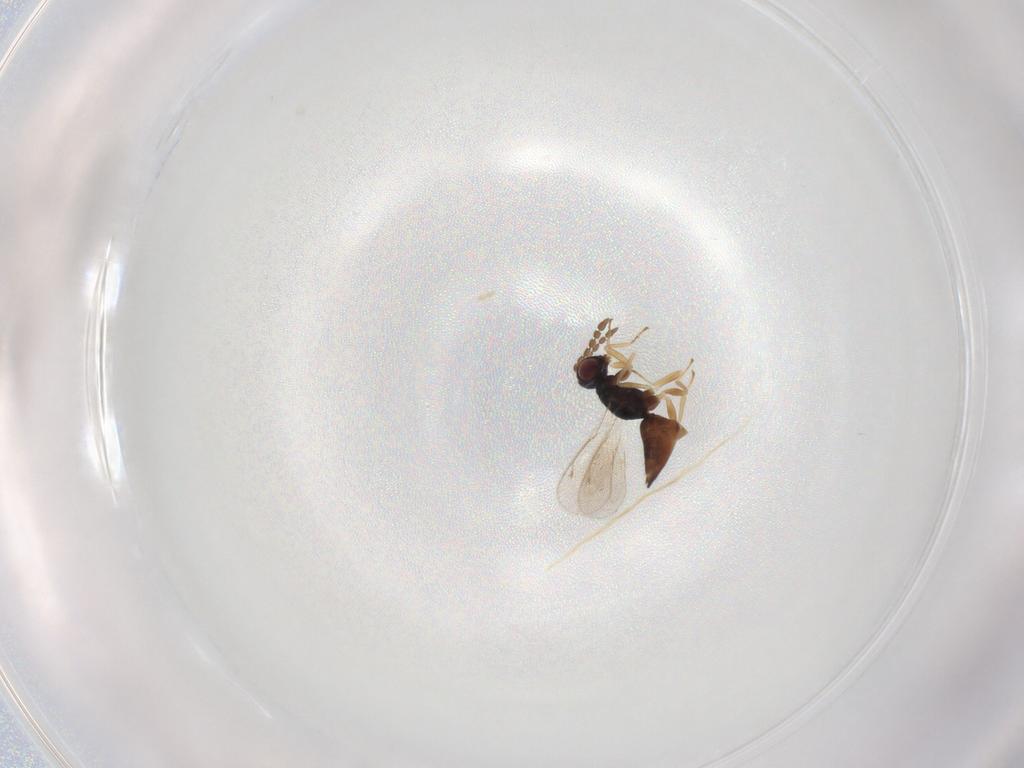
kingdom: Animalia
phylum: Arthropoda
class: Insecta
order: Hymenoptera
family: Eulophidae
